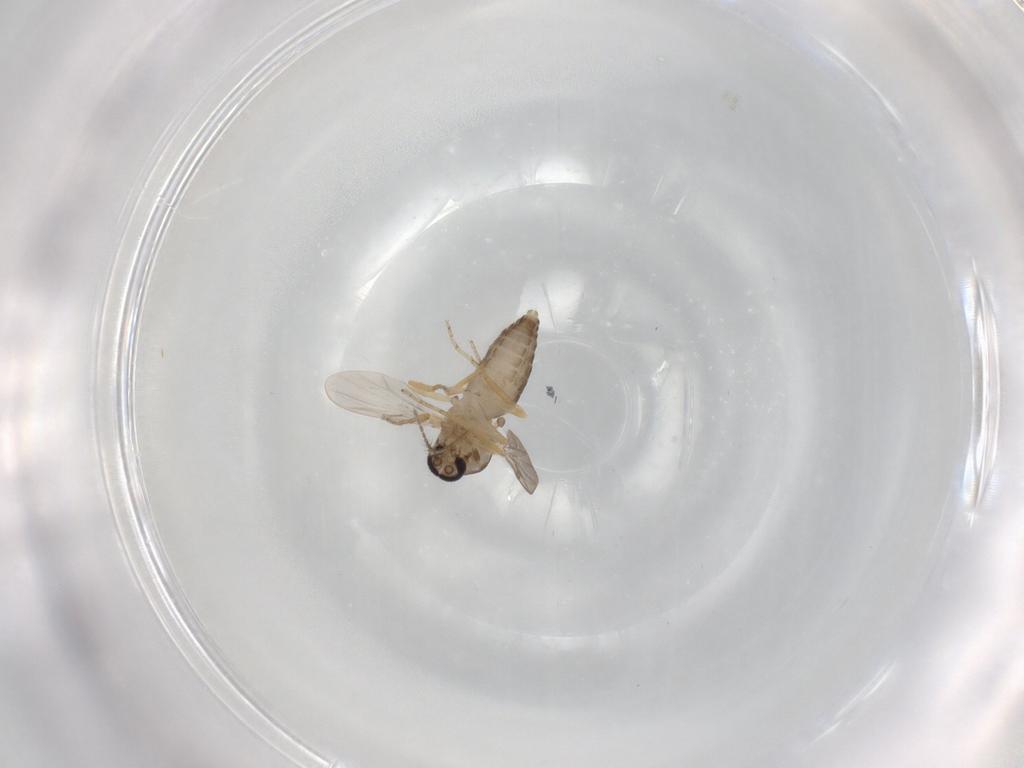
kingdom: Animalia
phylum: Arthropoda
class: Insecta
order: Diptera
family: Ceratopogonidae
